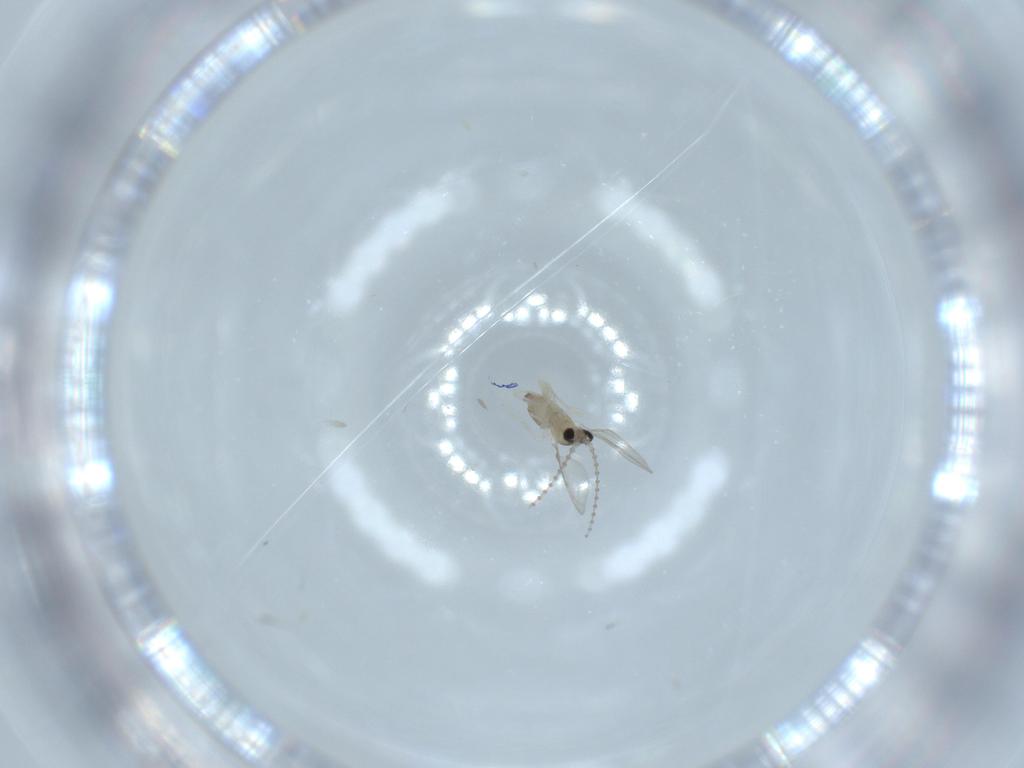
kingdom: Animalia
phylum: Arthropoda
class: Insecta
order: Diptera
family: Cecidomyiidae
